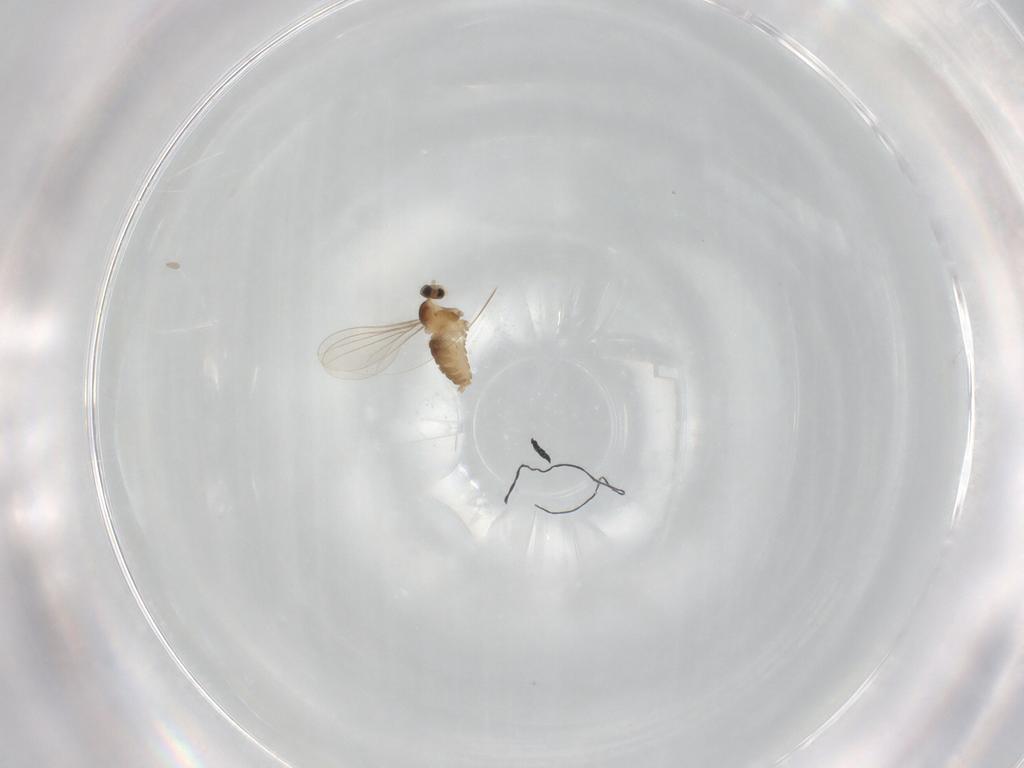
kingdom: Animalia
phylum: Arthropoda
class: Insecta
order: Diptera
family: Cecidomyiidae
